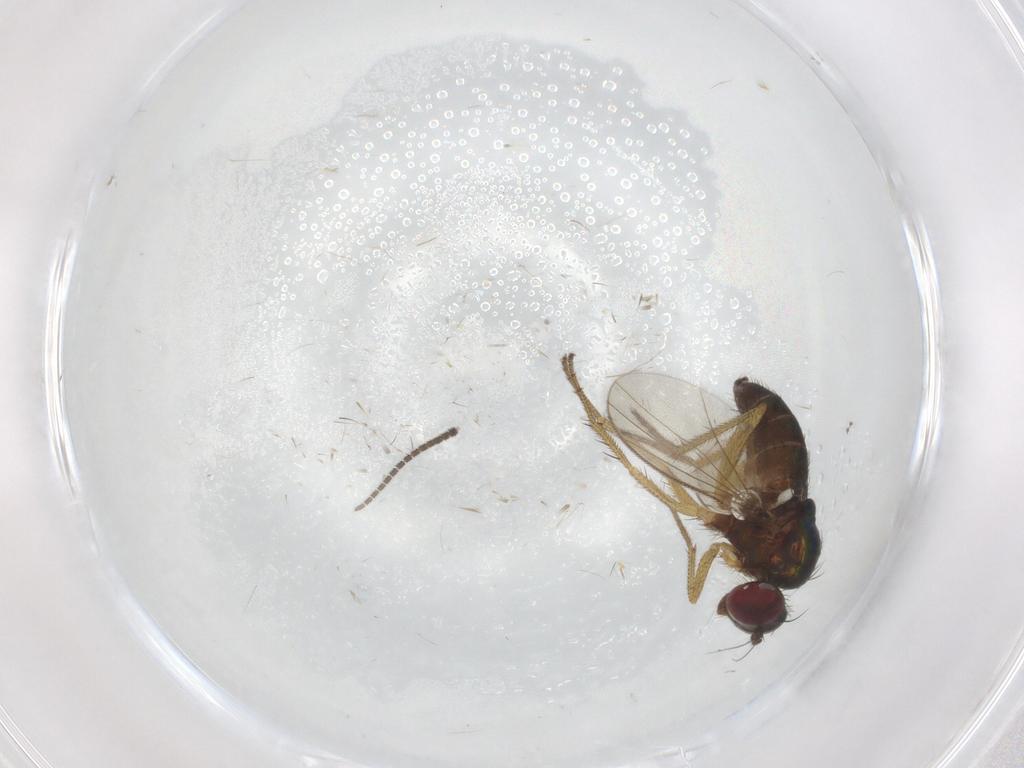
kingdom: Animalia
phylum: Arthropoda
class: Insecta
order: Diptera
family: Sciaridae
